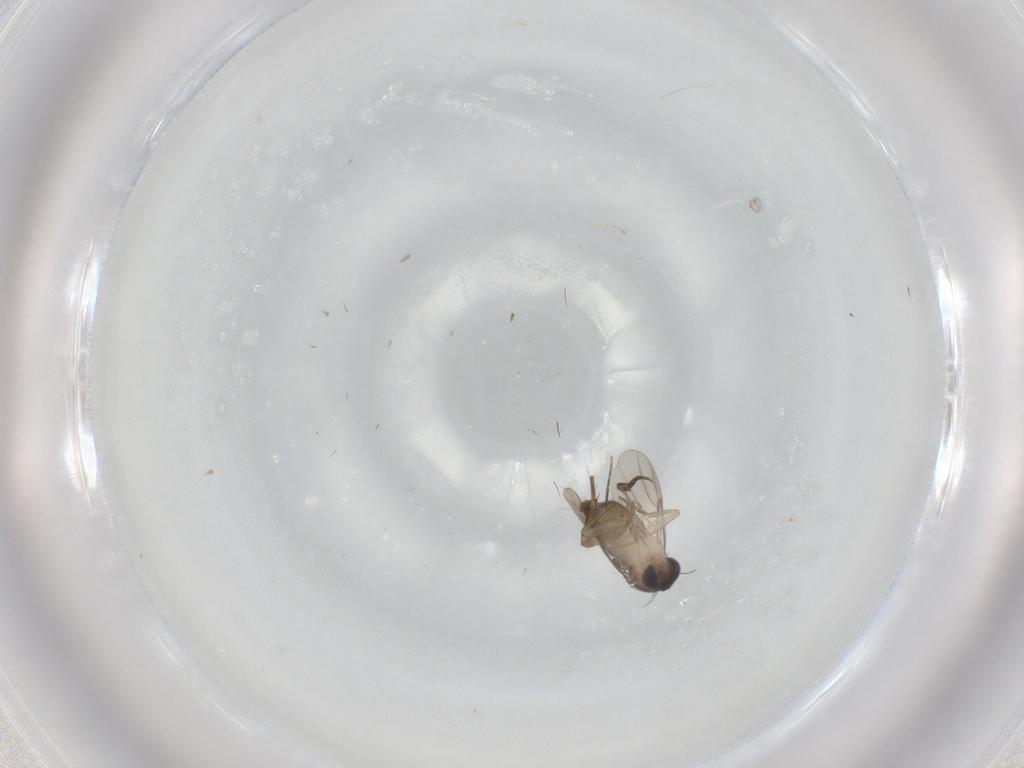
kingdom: Animalia
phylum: Arthropoda
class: Insecta
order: Diptera
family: Phoridae
